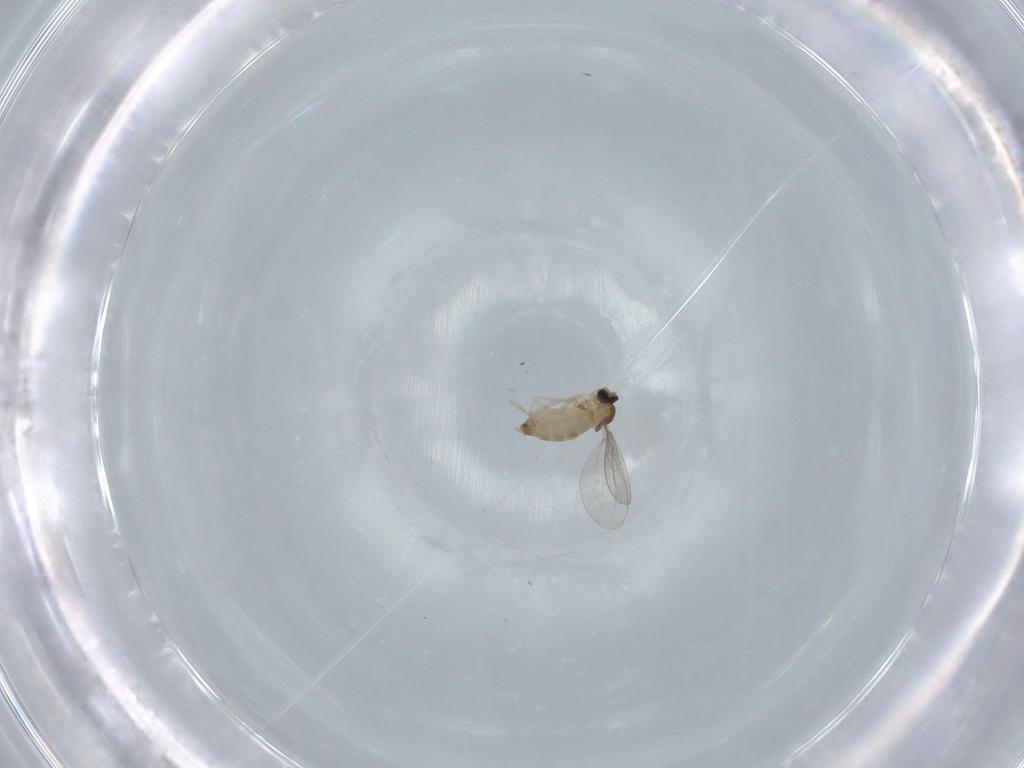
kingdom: Animalia
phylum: Arthropoda
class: Insecta
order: Diptera
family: Cecidomyiidae
